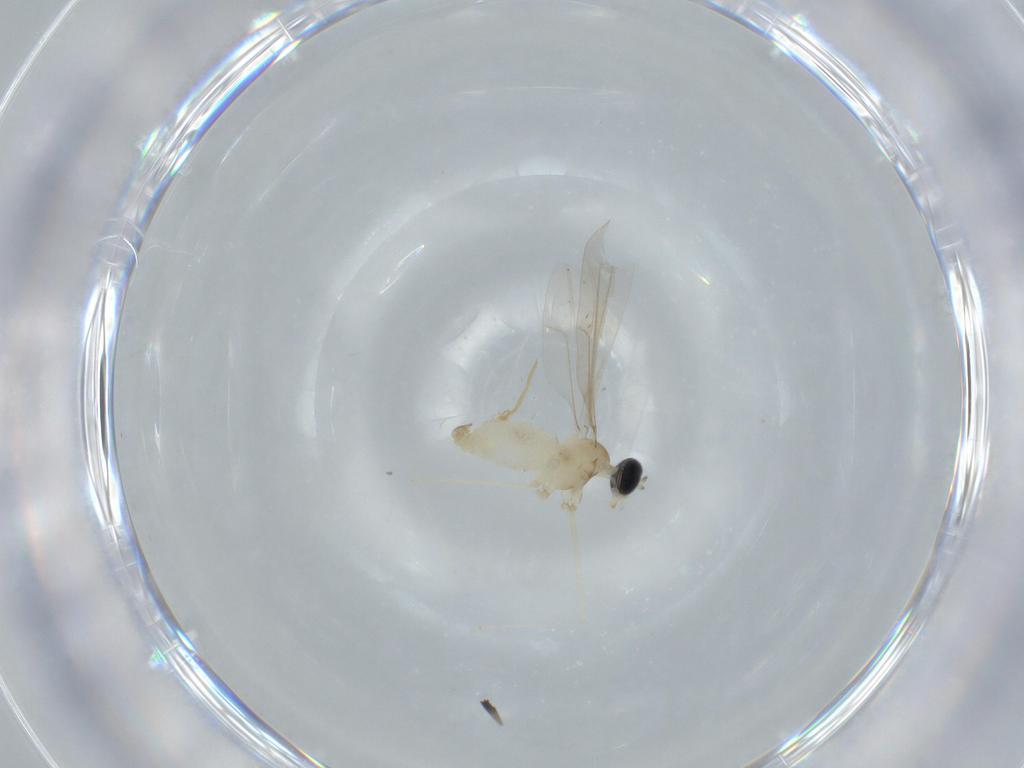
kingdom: Animalia
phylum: Arthropoda
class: Insecta
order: Diptera
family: Cecidomyiidae
